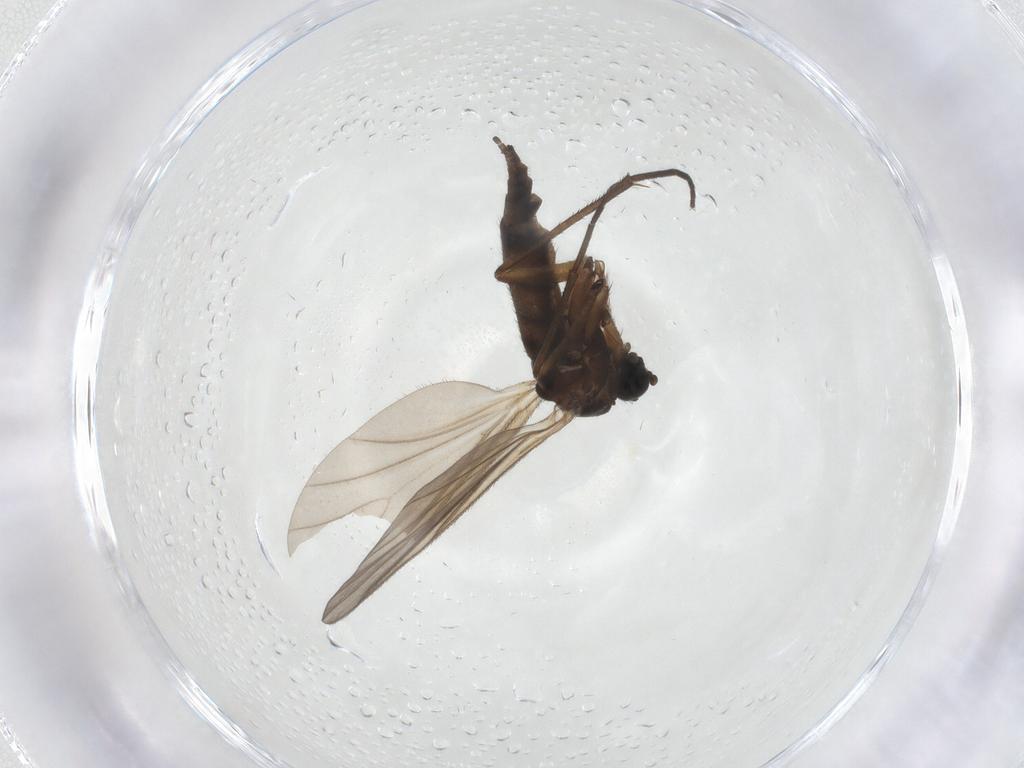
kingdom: Animalia
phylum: Arthropoda
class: Insecta
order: Diptera
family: Sciaridae
